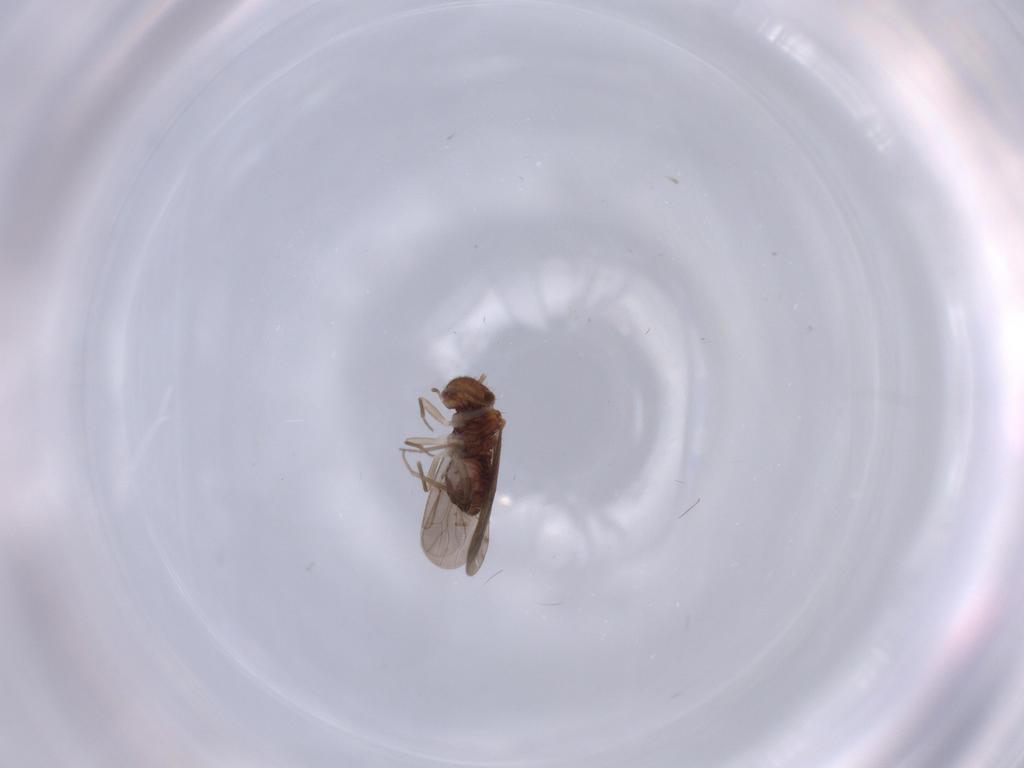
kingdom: Animalia
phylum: Arthropoda
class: Insecta
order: Psocodea
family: Ectopsocidae
